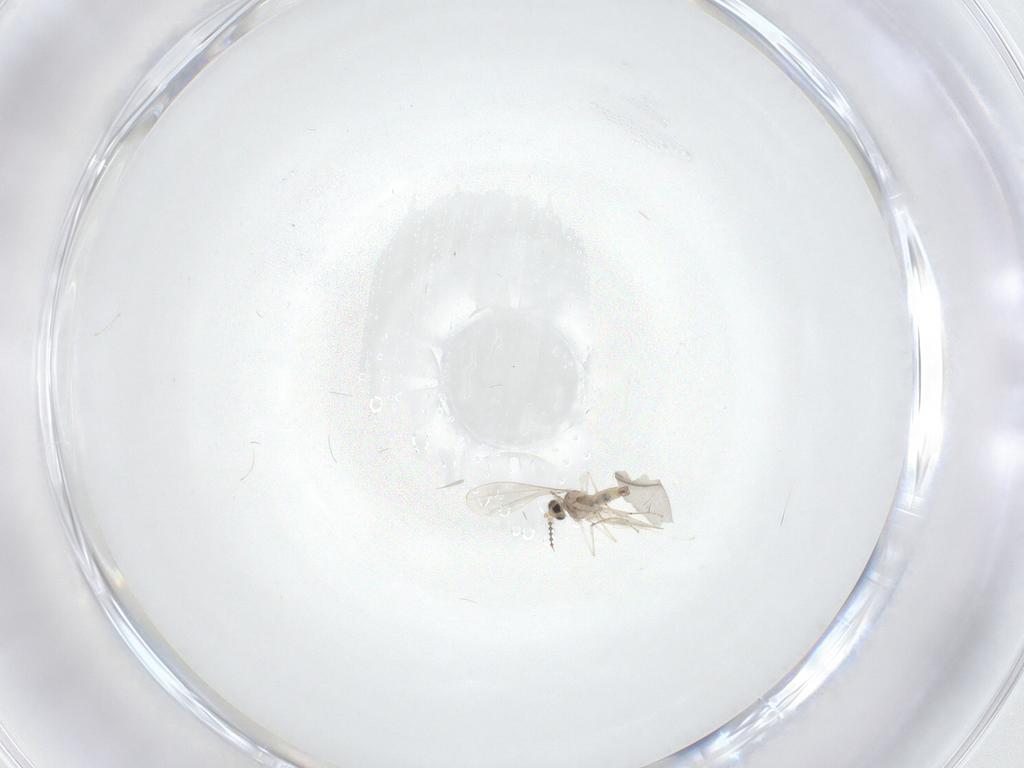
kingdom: Animalia
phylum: Arthropoda
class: Insecta
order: Diptera
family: Cecidomyiidae
